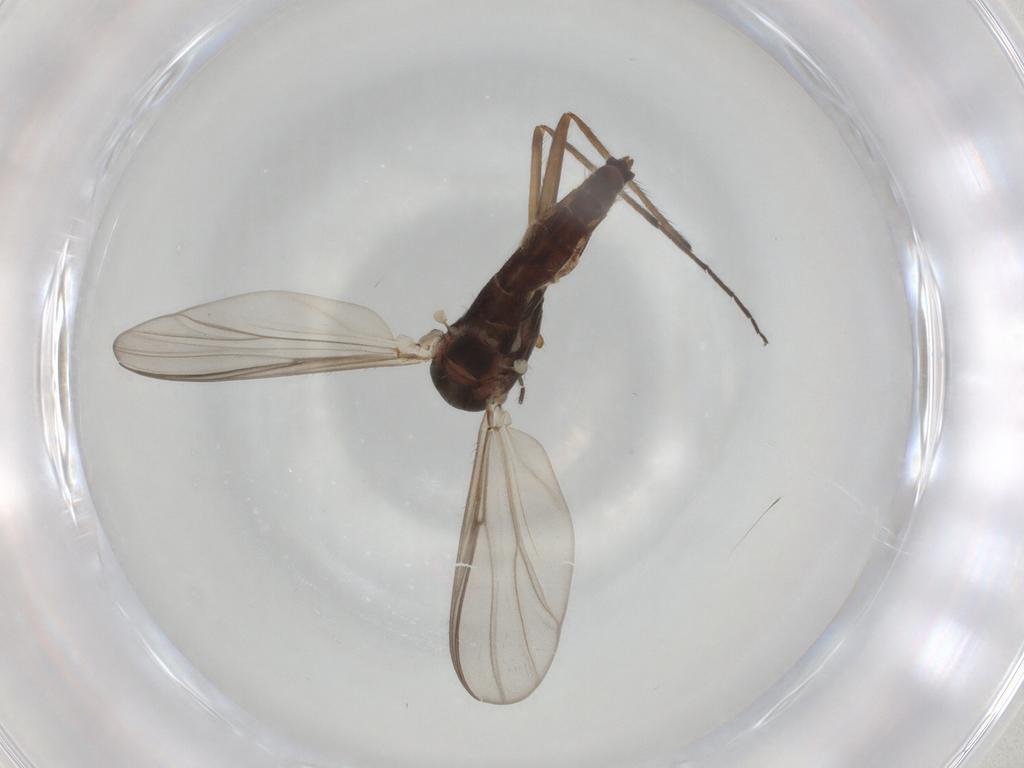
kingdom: Animalia
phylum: Arthropoda
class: Insecta
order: Diptera
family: Chironomidae
